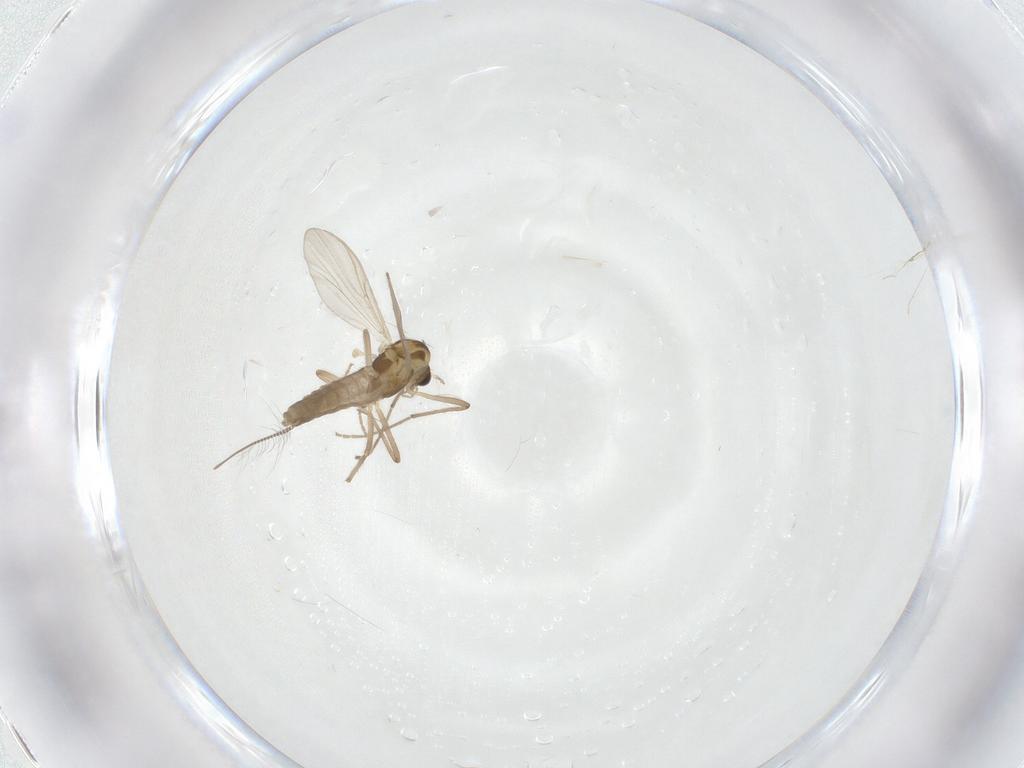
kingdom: Animalia
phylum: Arthropoda
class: Insecta
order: Diptera
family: Chironomidae
